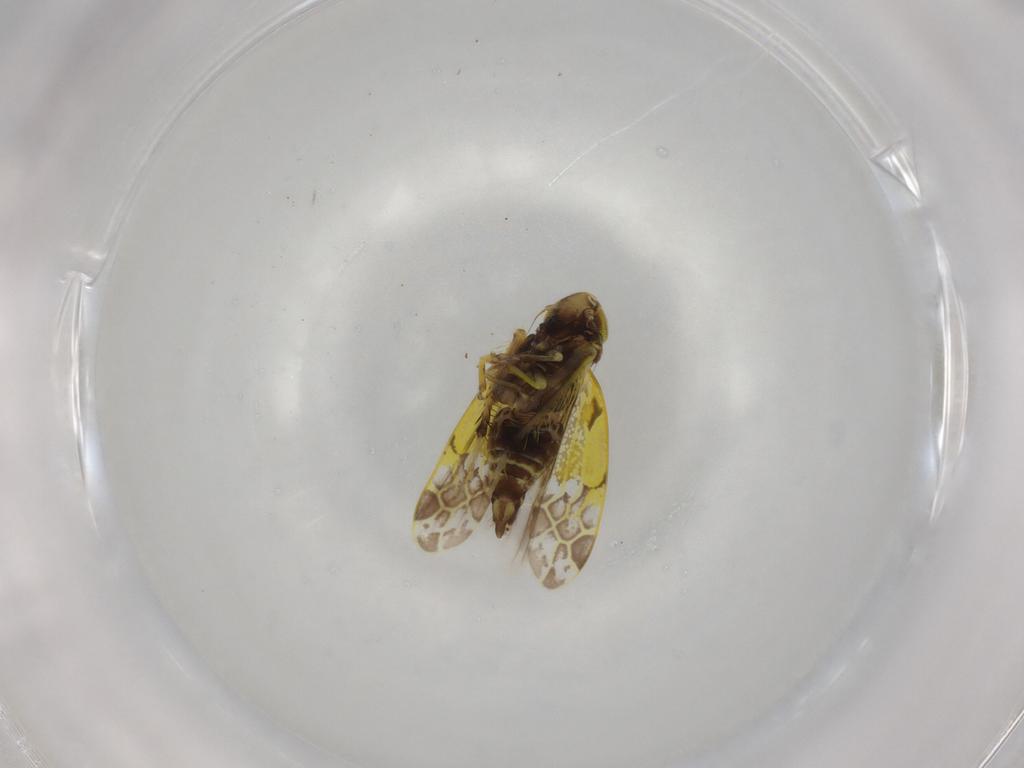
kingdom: Animalia
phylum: Arthropoda
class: Insecta
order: Hemiptera
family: Cicadellidae
